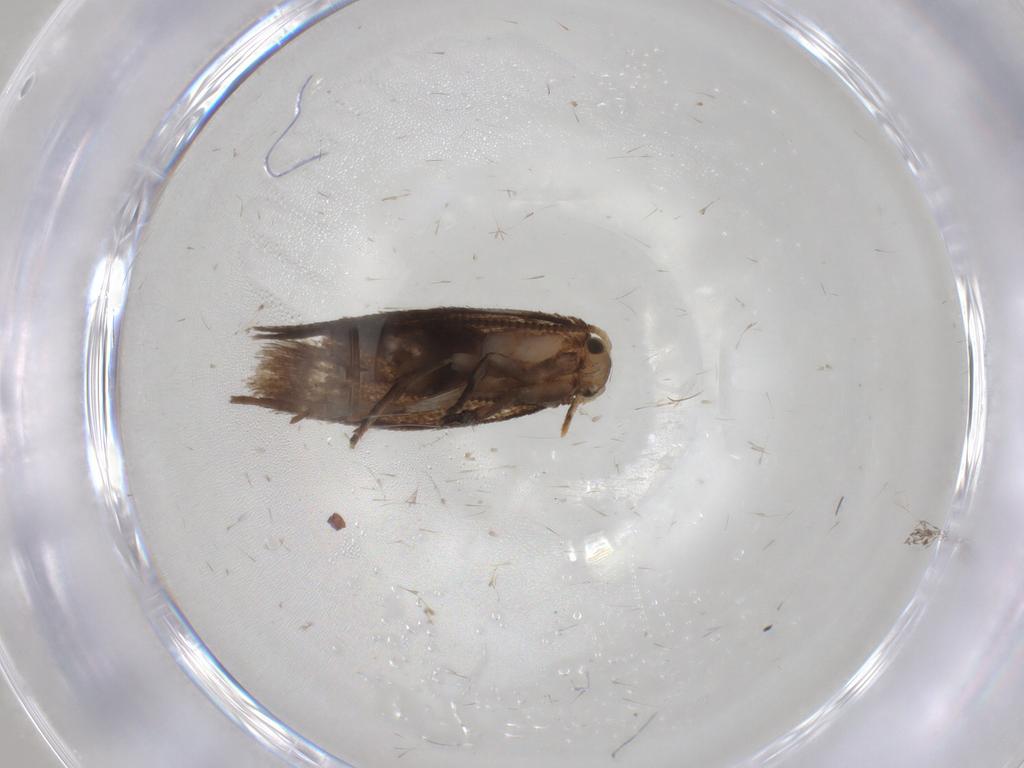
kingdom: Animalia
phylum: Arthropoda
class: Insecta
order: Lepidoptera
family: Dryadaulidae
